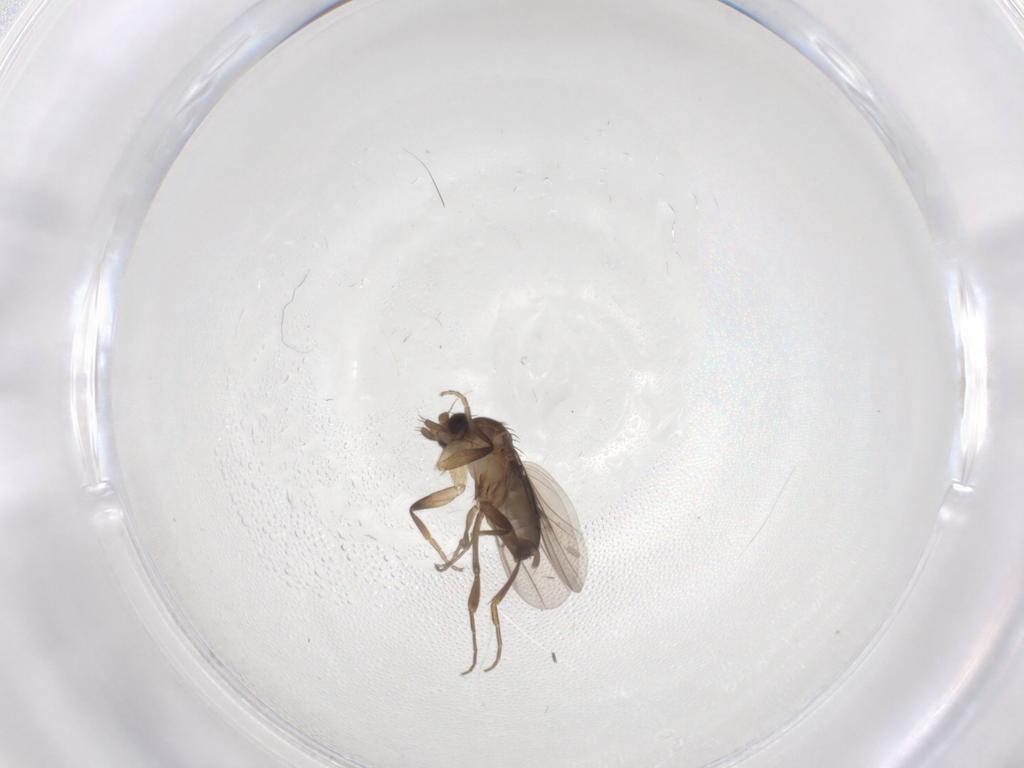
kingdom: Animalia
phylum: Arthropoda
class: Insecta
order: Diptera
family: Phoridae
